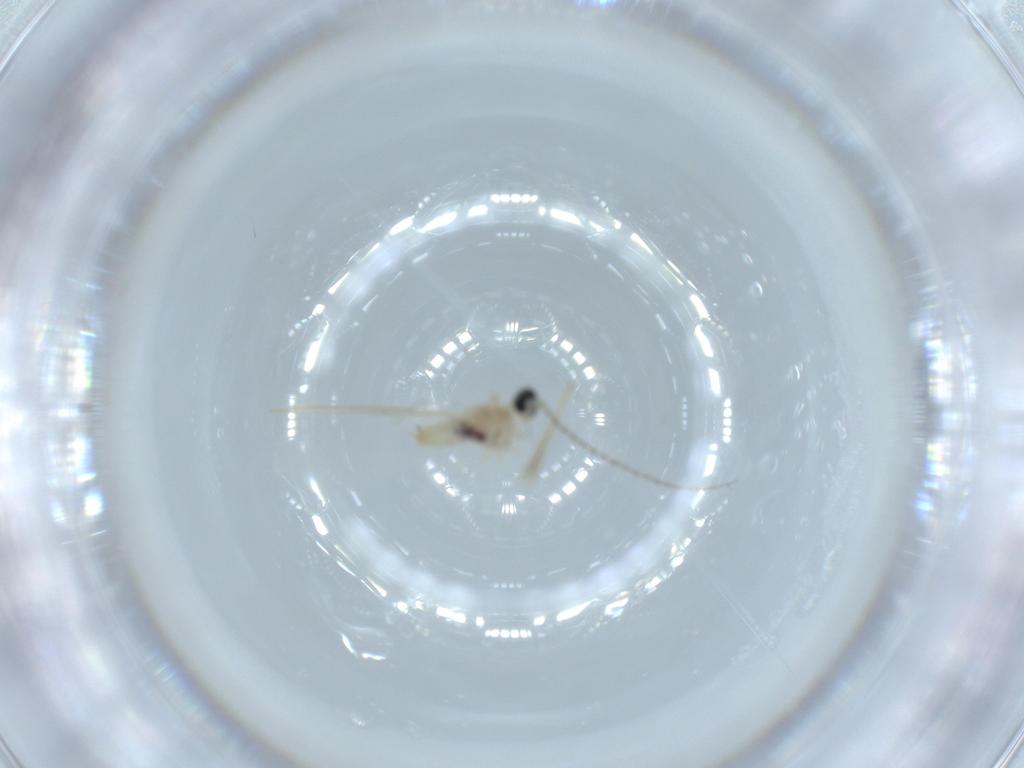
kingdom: Animalia
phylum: Arthropoda
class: Insecta
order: Diptera
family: Cecidomyiidae
